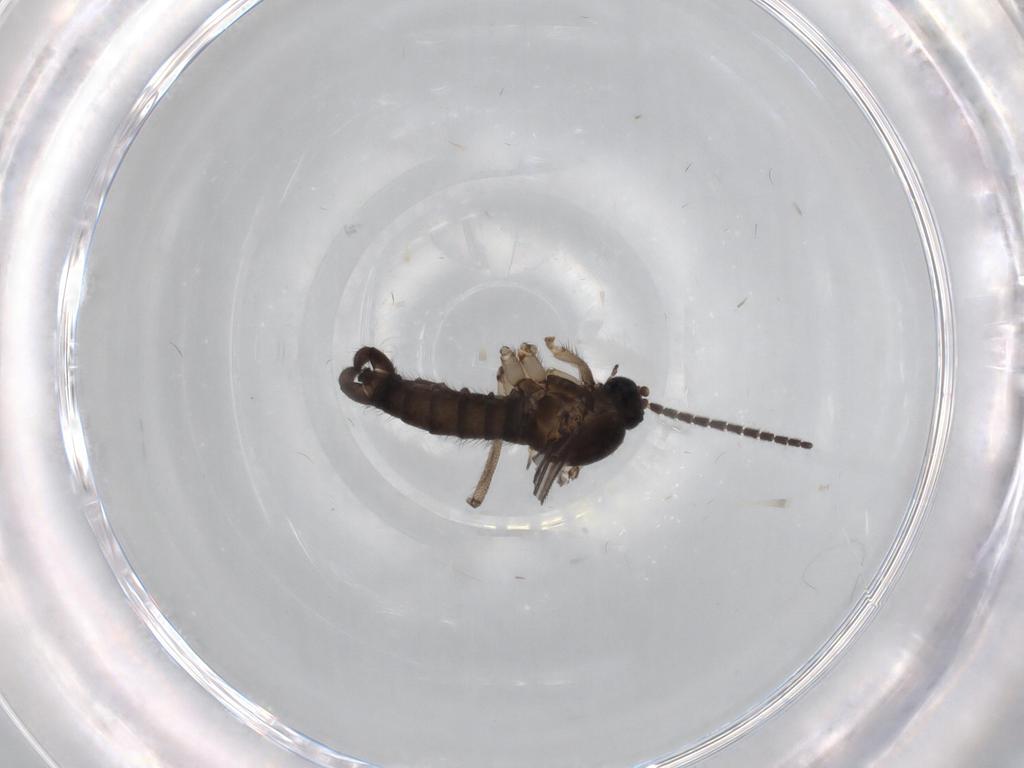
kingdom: Animalia
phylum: Arthropoda
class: Insecta
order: Diptera
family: Sciaridae
